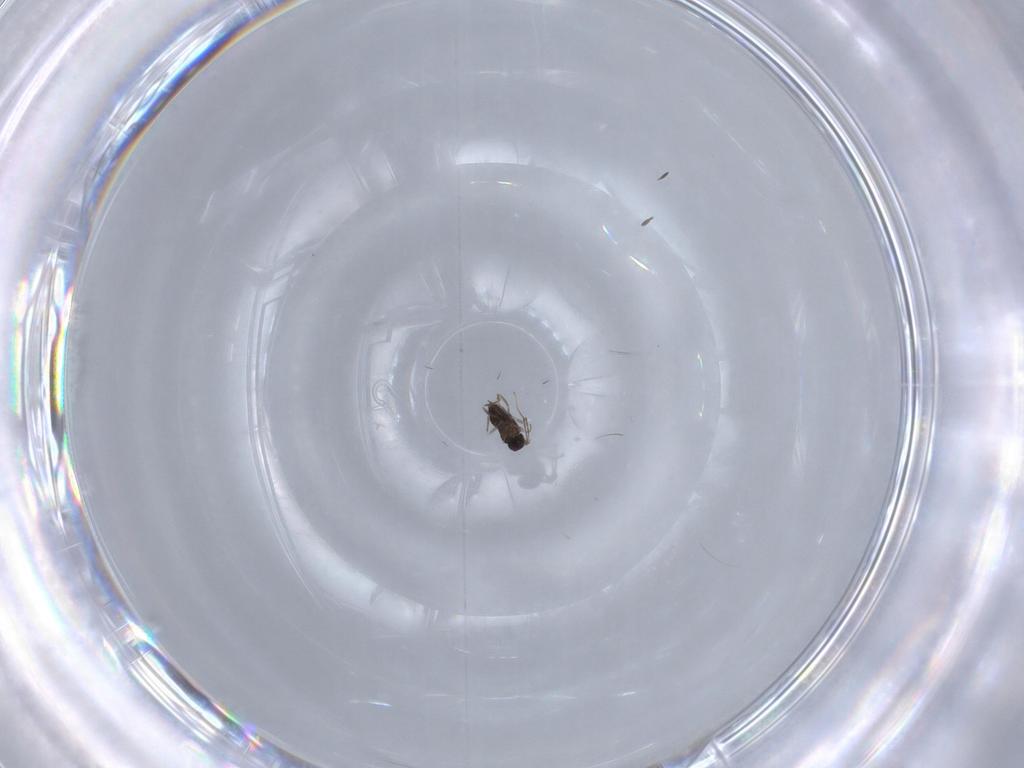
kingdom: Animalia
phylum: Arthropoda
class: Insecta
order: Hymenoptera
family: Mymaridae
